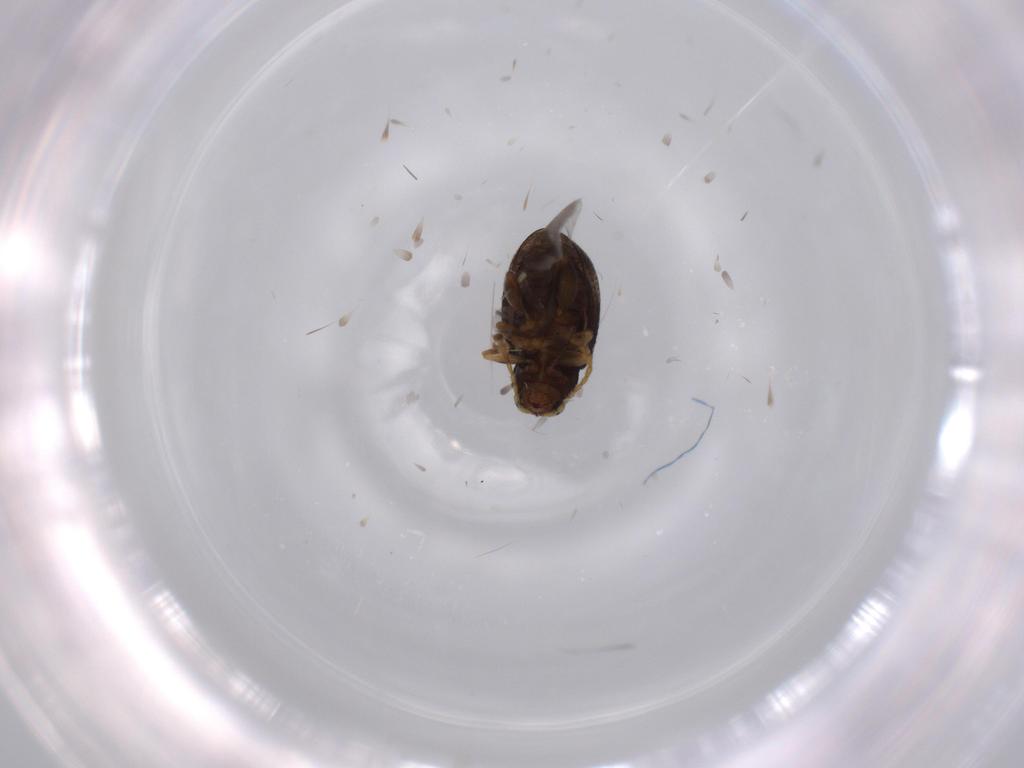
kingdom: Animalia
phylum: Arthropoda
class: Insecta
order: Coleoptera
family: Chrysomelidae
